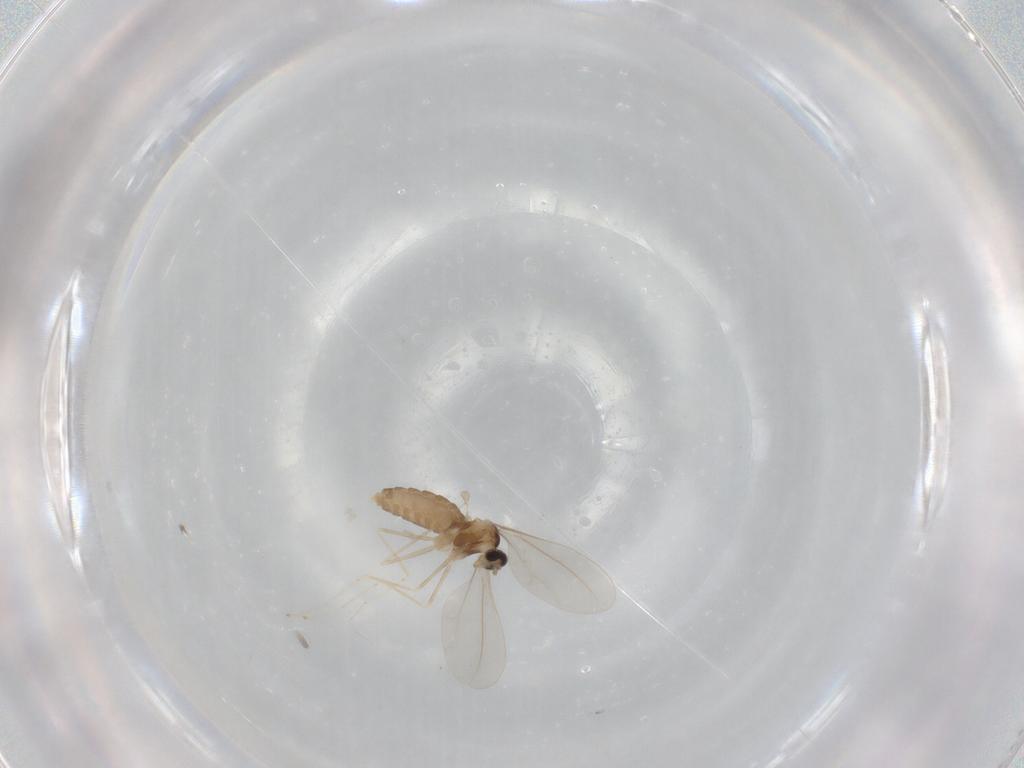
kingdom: Animalia
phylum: Arthropoda
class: Insecta
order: Diptera
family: Cecidomyiidae
